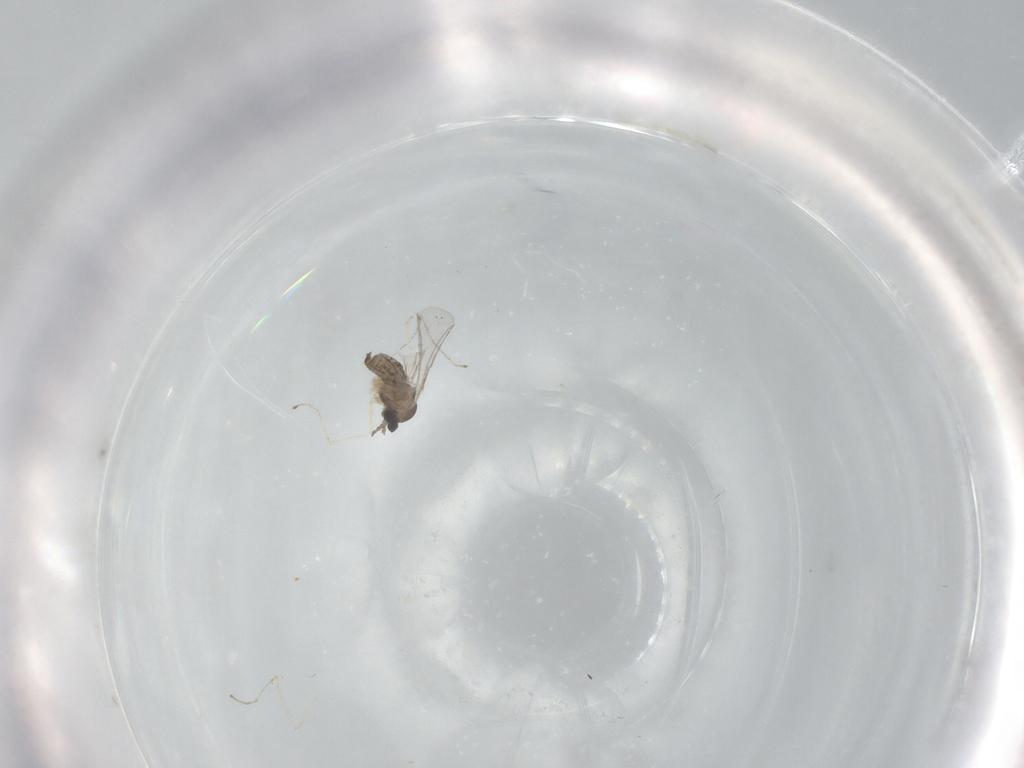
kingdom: Animalia
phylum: Arthropoda
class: Insecta
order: Diptera
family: Cecidomyiidae
